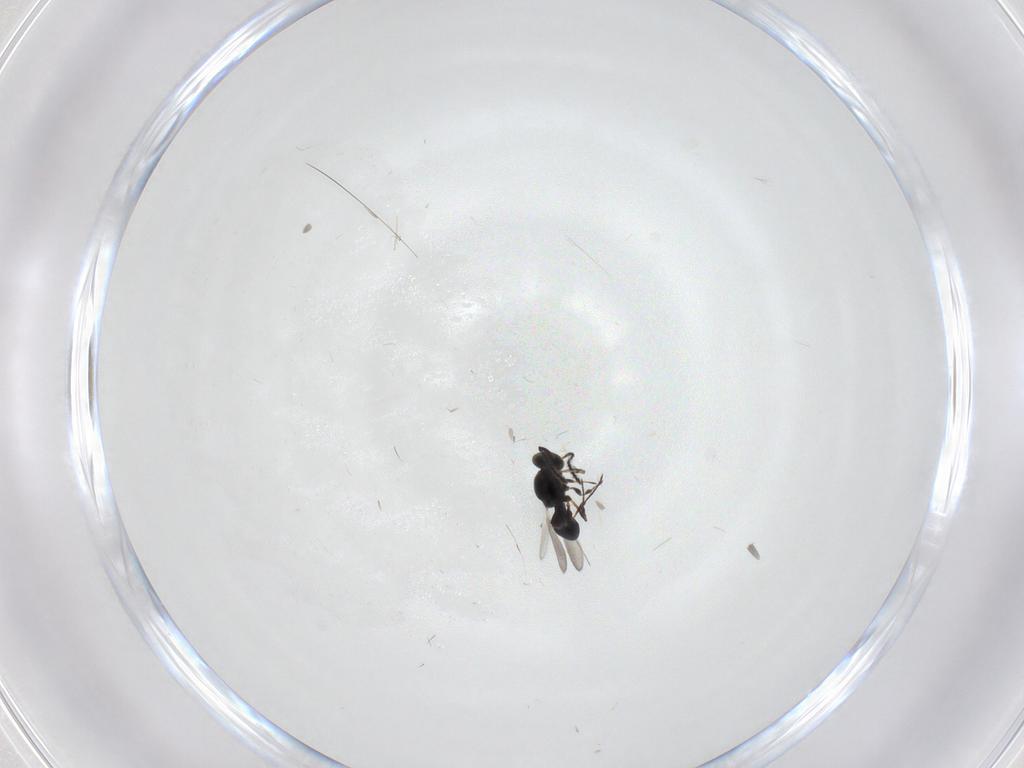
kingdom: Animalia
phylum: Arthropoda
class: Insecta
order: Hymenoptera
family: Platygastridae
